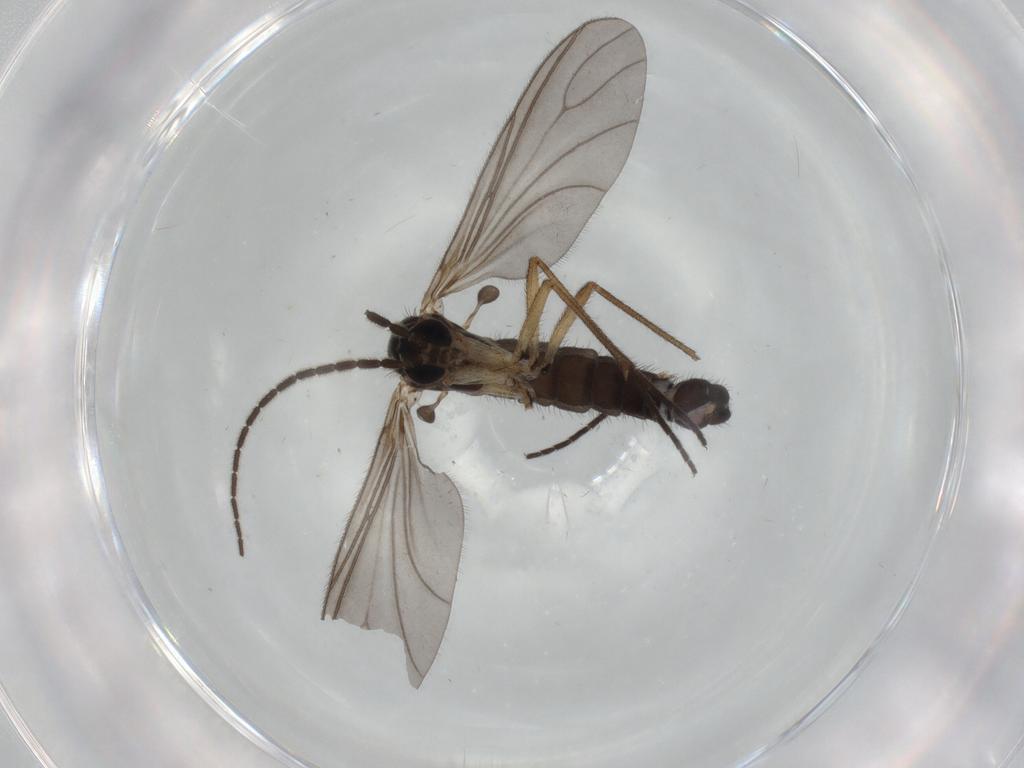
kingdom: Animalia
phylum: Arthropoda
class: Insecta
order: Diptera
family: Sciaridae
